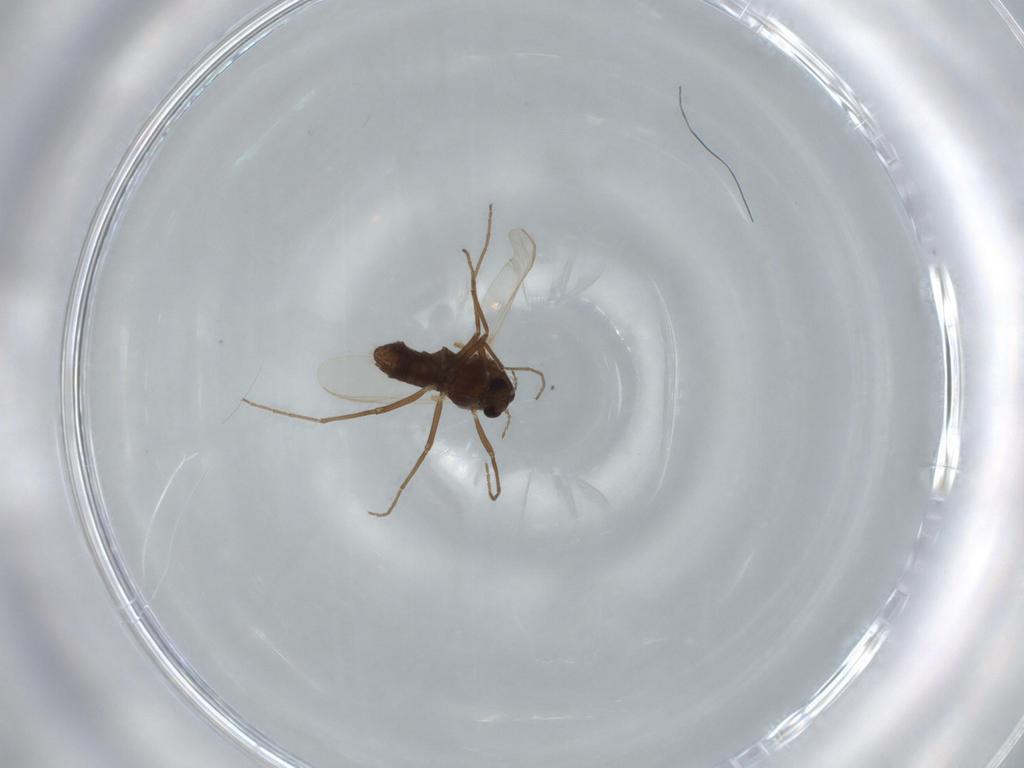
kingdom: Animalia
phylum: Arthropoda
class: Insecta
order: Diptera
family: Chironomidae
